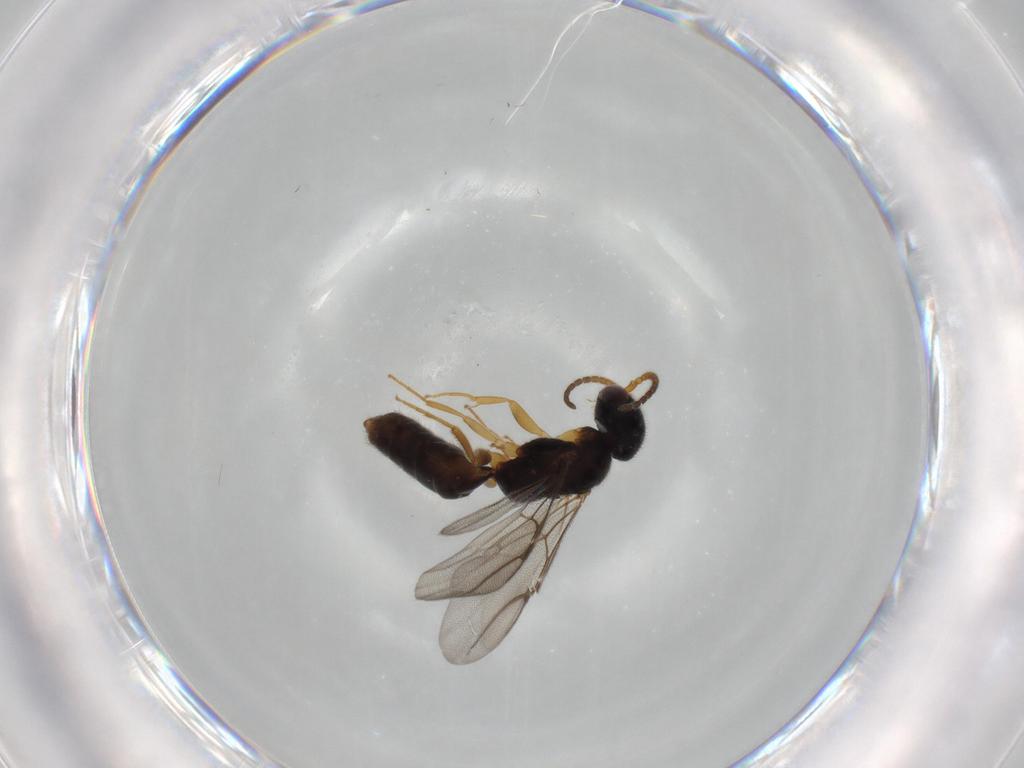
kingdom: Animalia
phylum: Arthropoda
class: Insecta
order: Hymenoptera
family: Bethylidae
